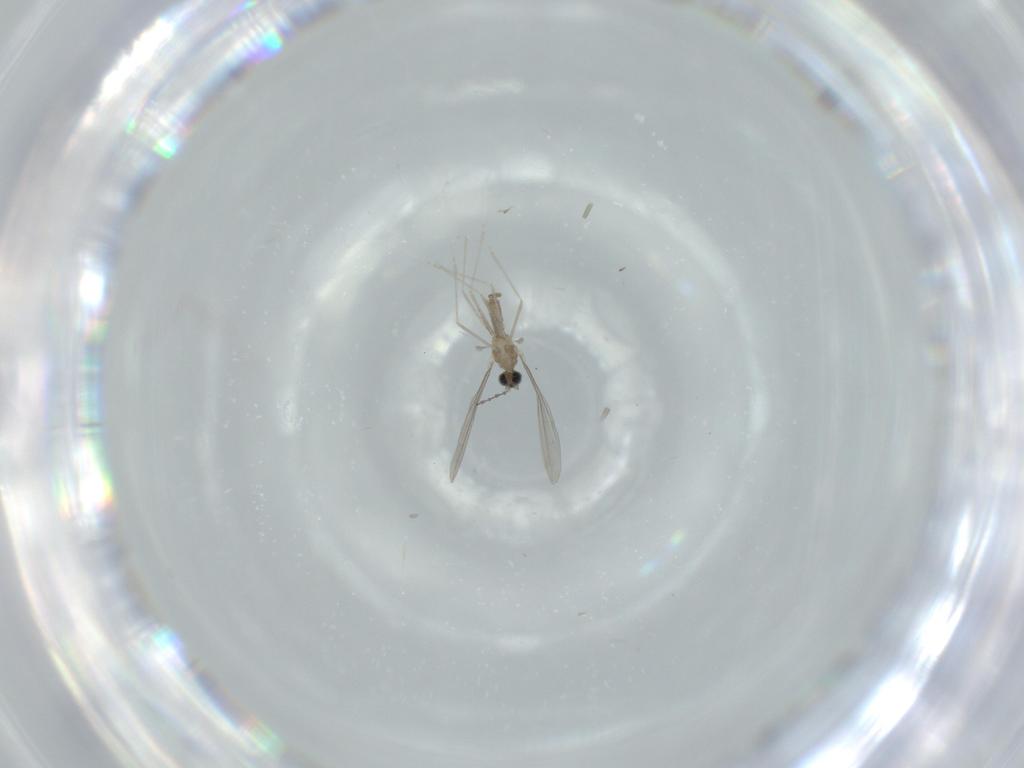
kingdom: Animalia
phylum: Arthropoda
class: Insecta
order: Diptera
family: Cecidomyiidae
